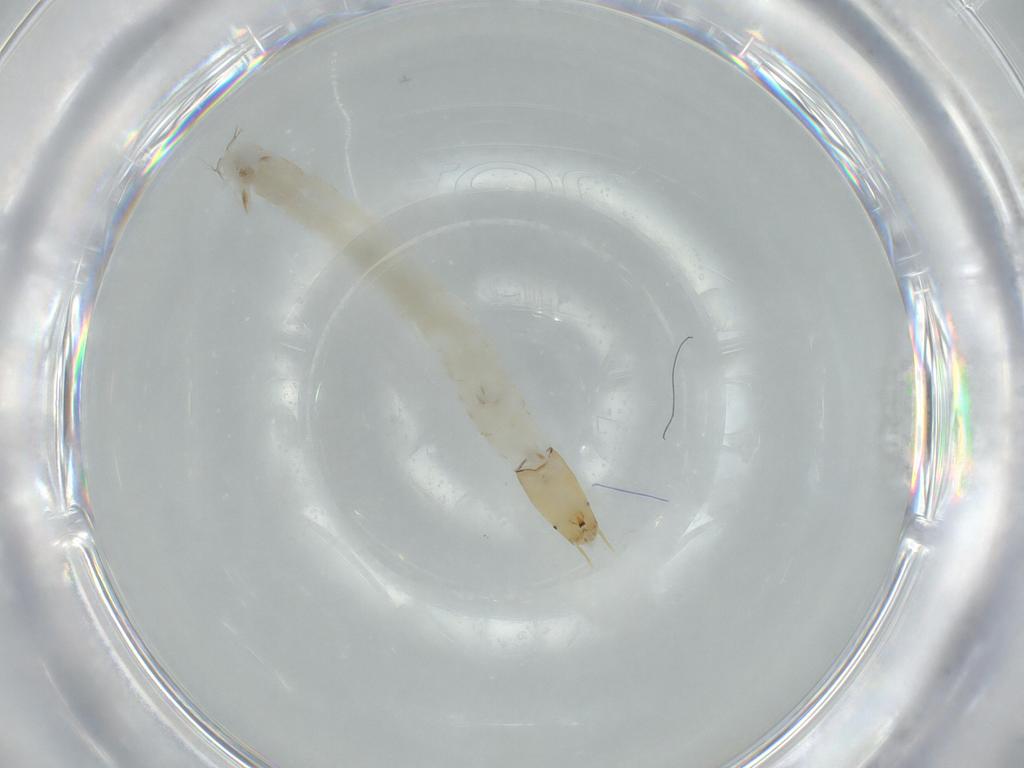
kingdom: Animalia
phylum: Arthropoda
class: Insecta
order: Diptera
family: Chironomidae
